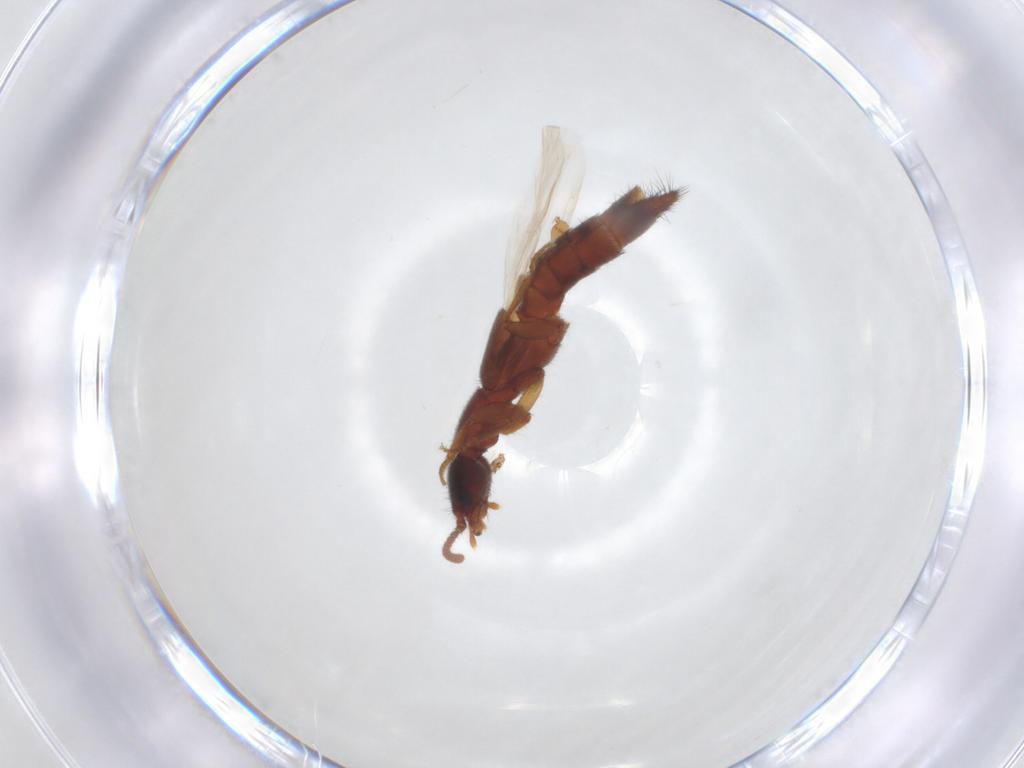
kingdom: Animalia
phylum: Arthropoda
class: Insecta
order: Coleoptera
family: Staphylinidae
